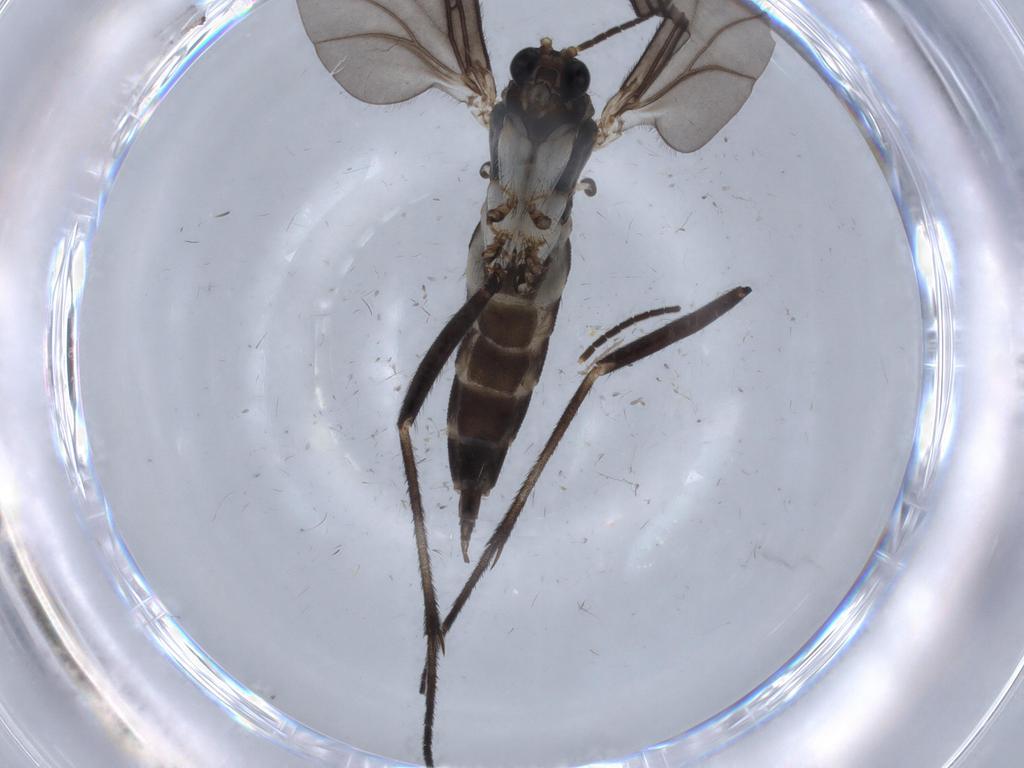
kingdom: Animalia
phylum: Arthropoda
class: Insecta
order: Diptera
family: Sciaridae
